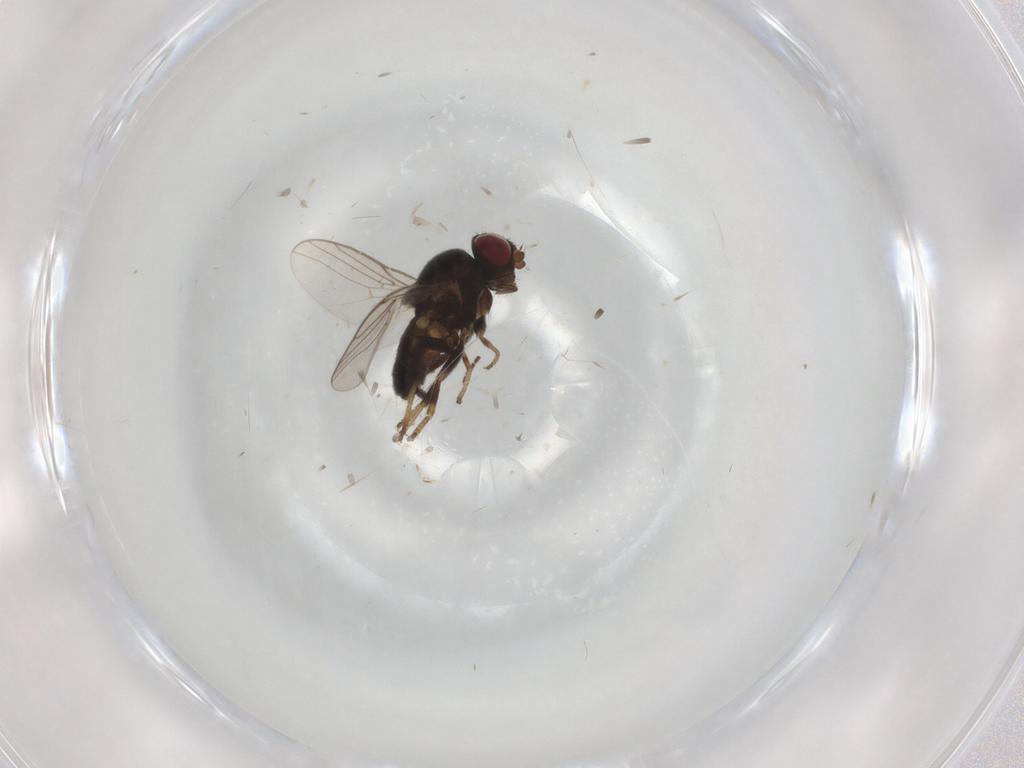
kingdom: Animalia
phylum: Arthropoda
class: Insecta
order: Diptera
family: Chloropidae
